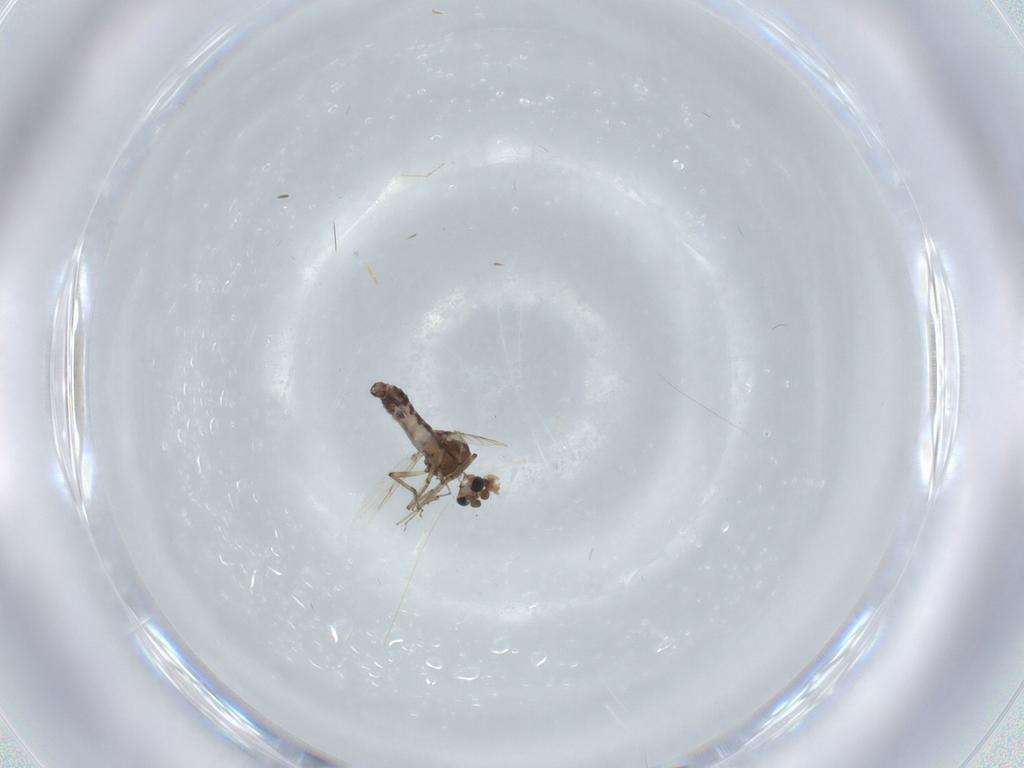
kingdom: Animalia
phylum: Arthropoda
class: Insecta
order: Diptera
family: Ceratopogonidae
